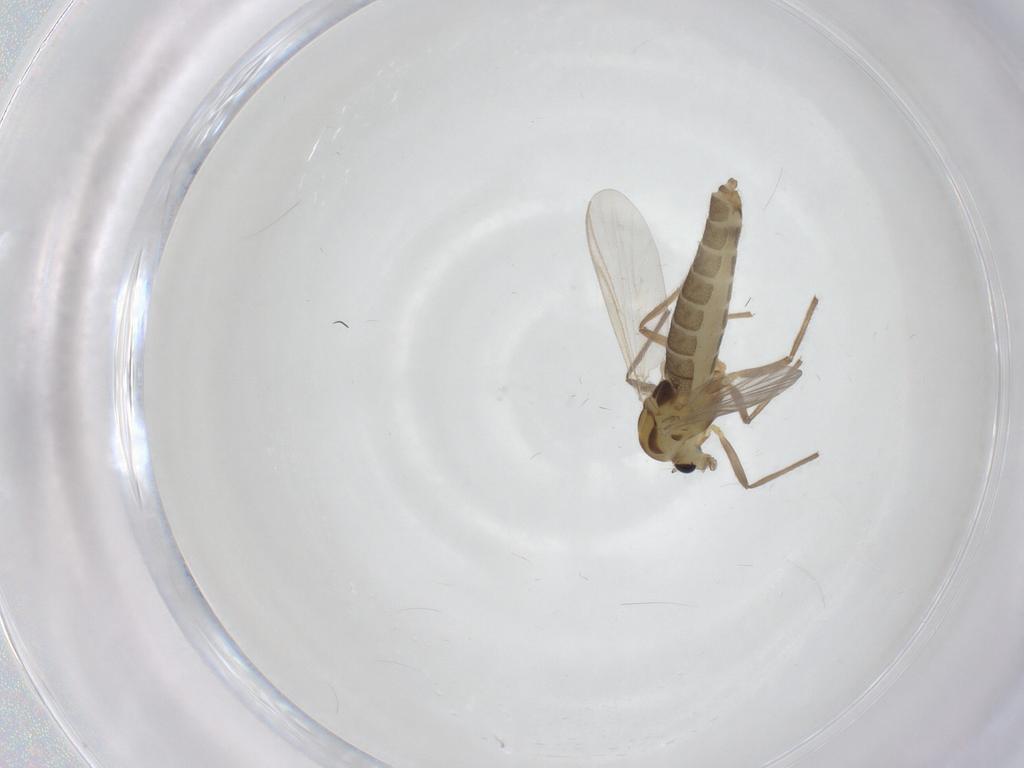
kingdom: Animalia
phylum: Arthropoda
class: Insecta
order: Diptera
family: Chironomidae
